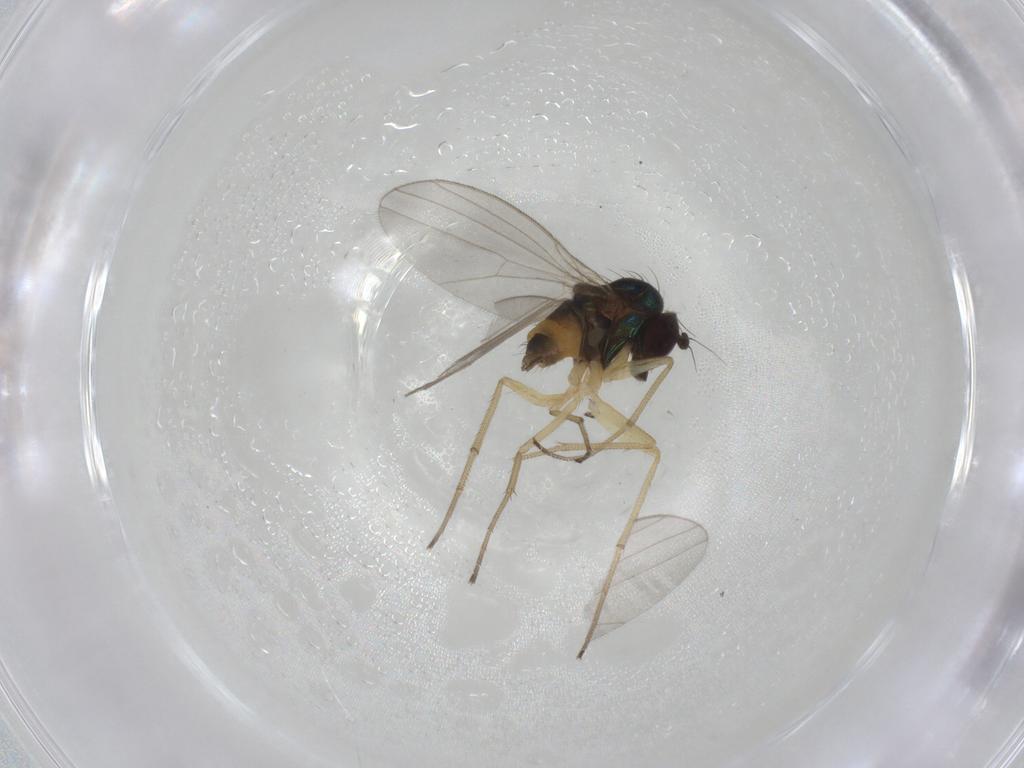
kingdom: Animalia
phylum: Arthropoda
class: Insecta
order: Diptera
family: Dolichopodidae
